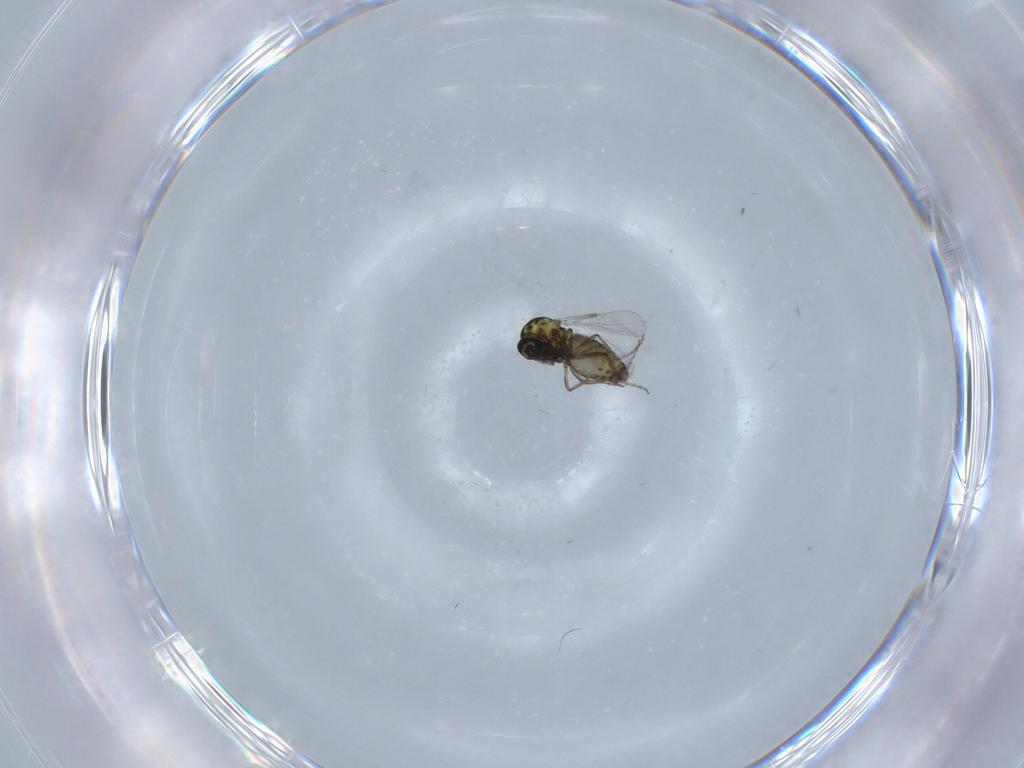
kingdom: Animalia
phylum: Arthropoda
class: Insecta
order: Diptera
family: Ceratopogonidae
